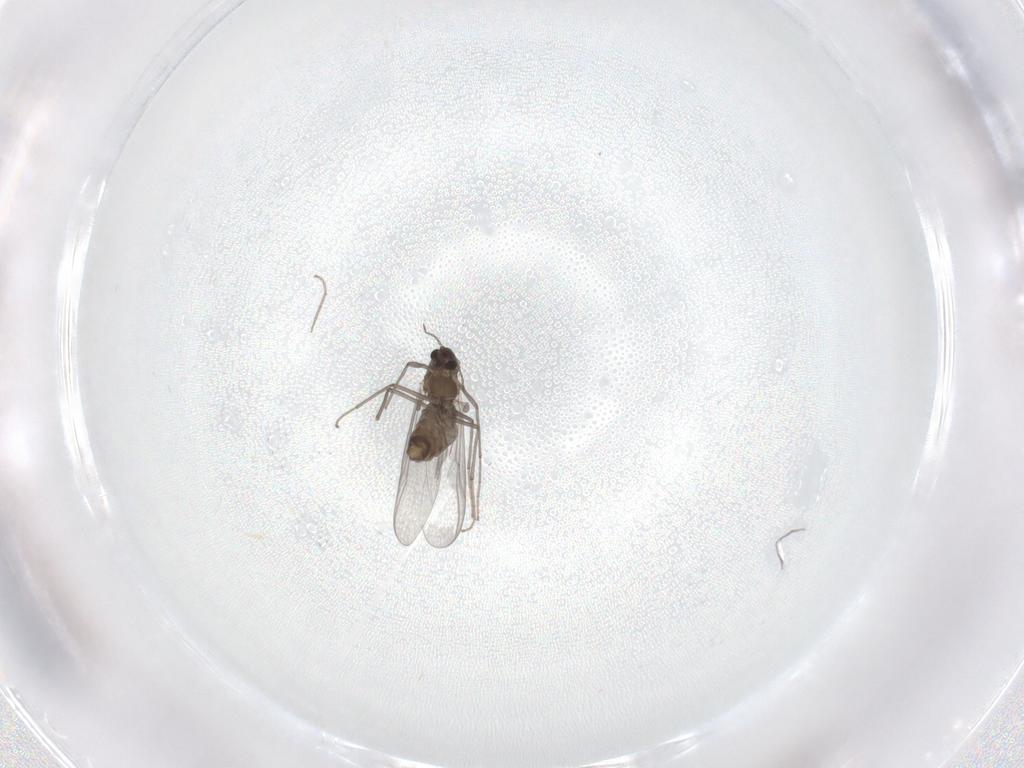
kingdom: Animalia
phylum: Arthropoda
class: Insecta
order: Diptera
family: Chironomidae
